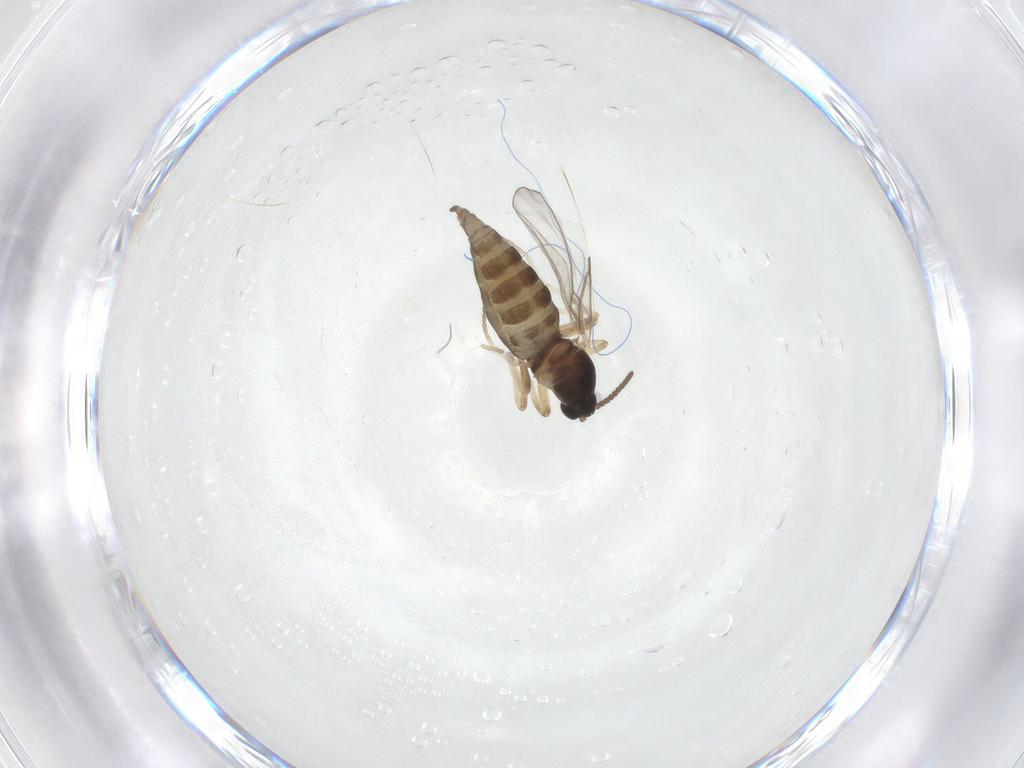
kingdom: Animalia
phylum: Arthropoda
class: Insecta
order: Diptera
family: Cecidomyiidae
